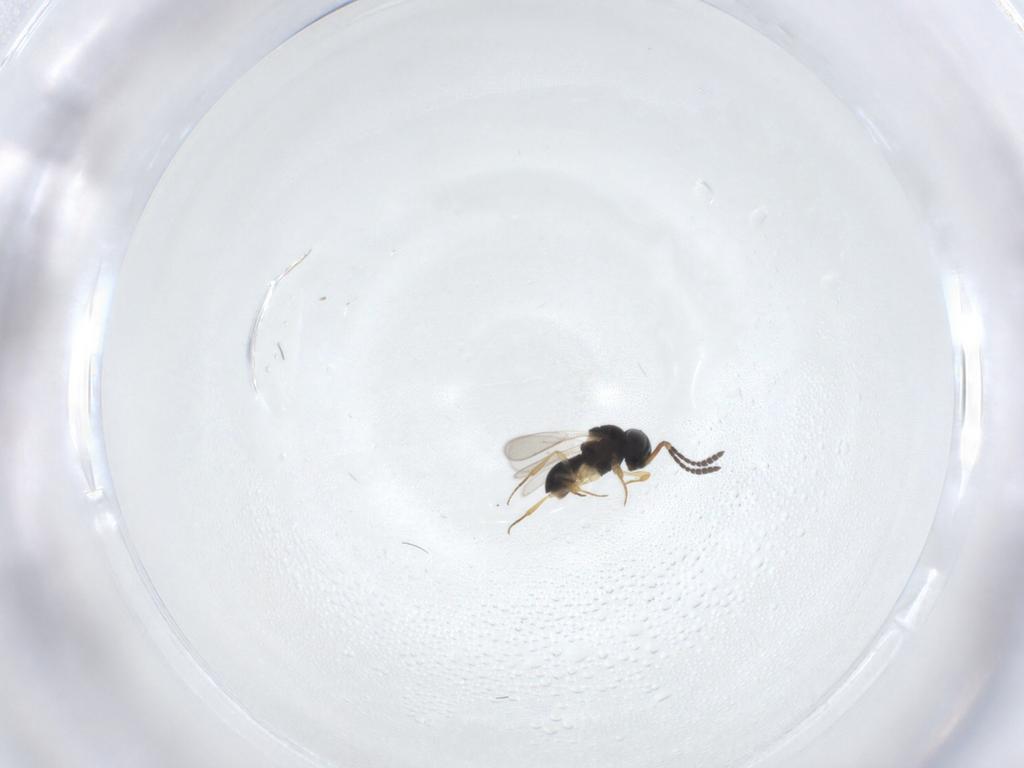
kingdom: Animalia
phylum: Arthropoda
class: Insecta
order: Hymenoptera
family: Scelionidae
